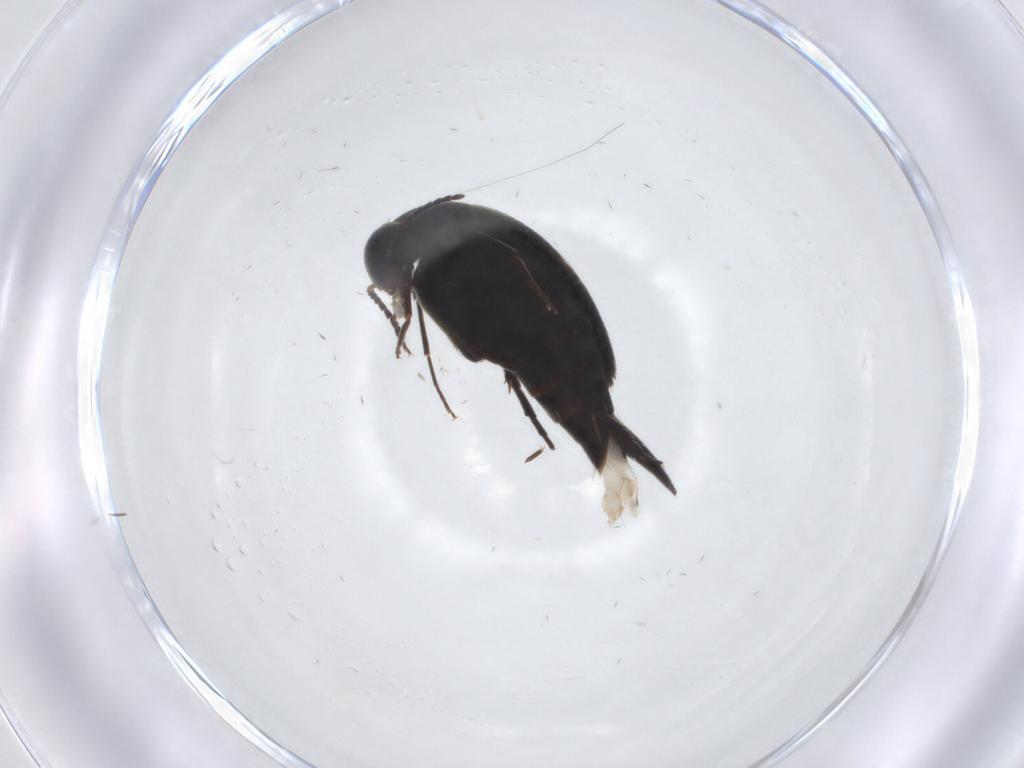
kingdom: Animalia
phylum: Arthropoda
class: Insecta
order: Coleoptera
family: Mordellidae
